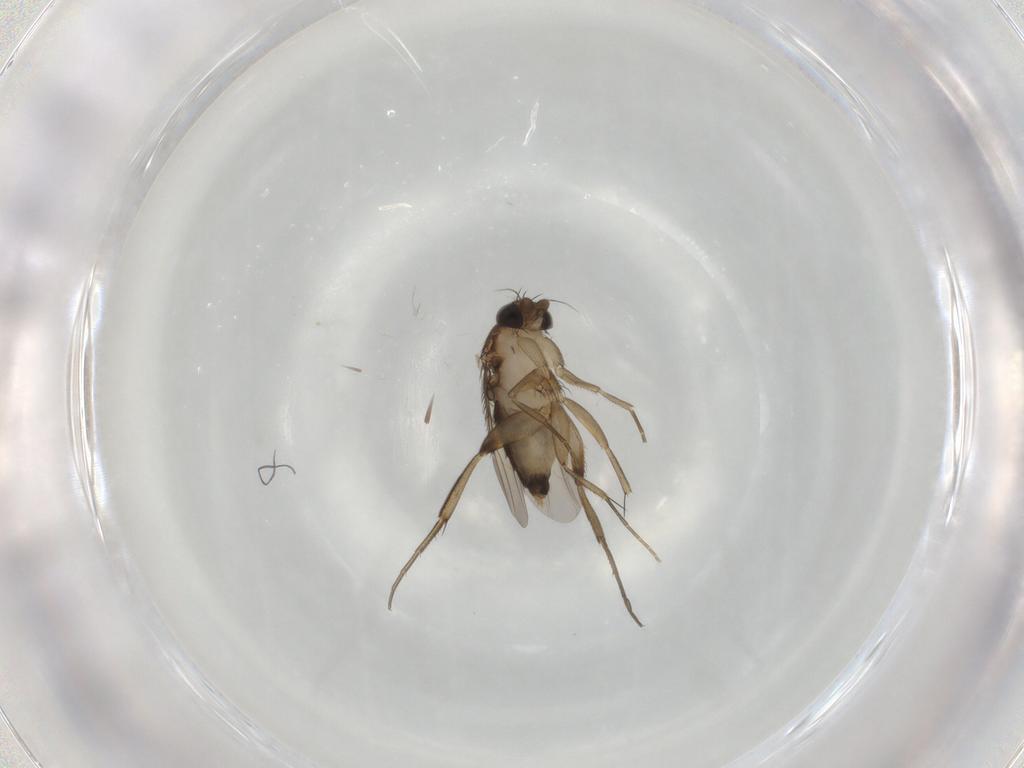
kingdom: Animalia
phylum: Arthropoda
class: Insecta
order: Diptera
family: Phoridae
